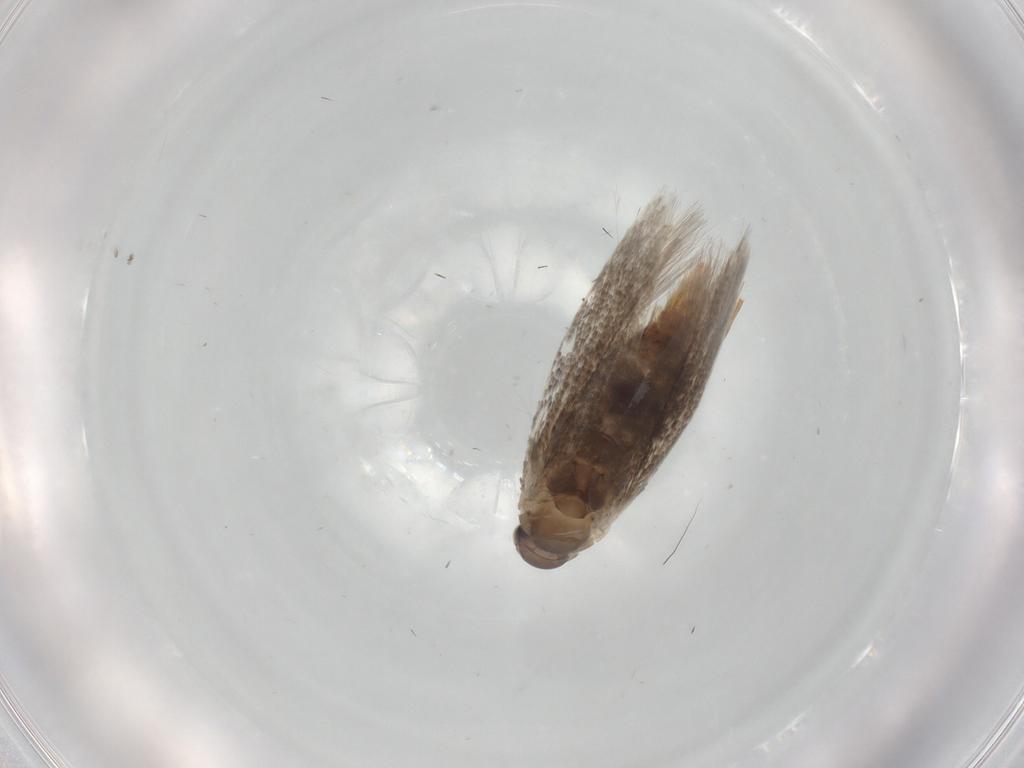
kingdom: Animalia
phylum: Arthropoda
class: Insecta
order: Lepidoptera
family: Elachistidae
